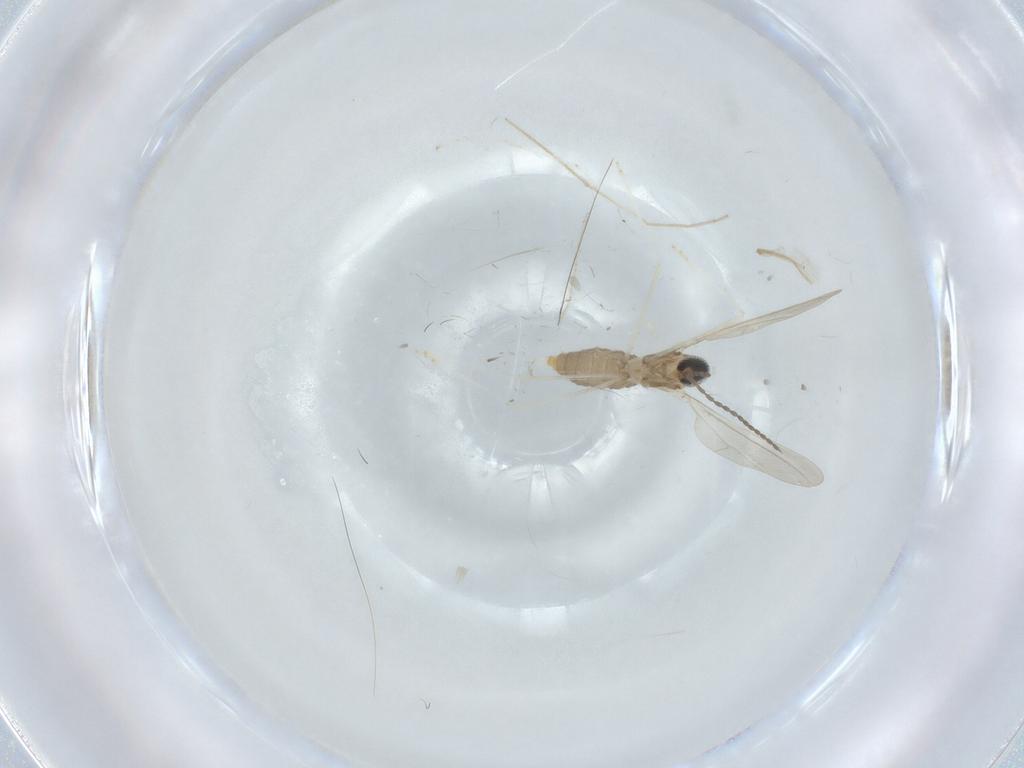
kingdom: Animalia
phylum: Arthropoda
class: Insecta
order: Diptera
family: Cecidomyiidae
